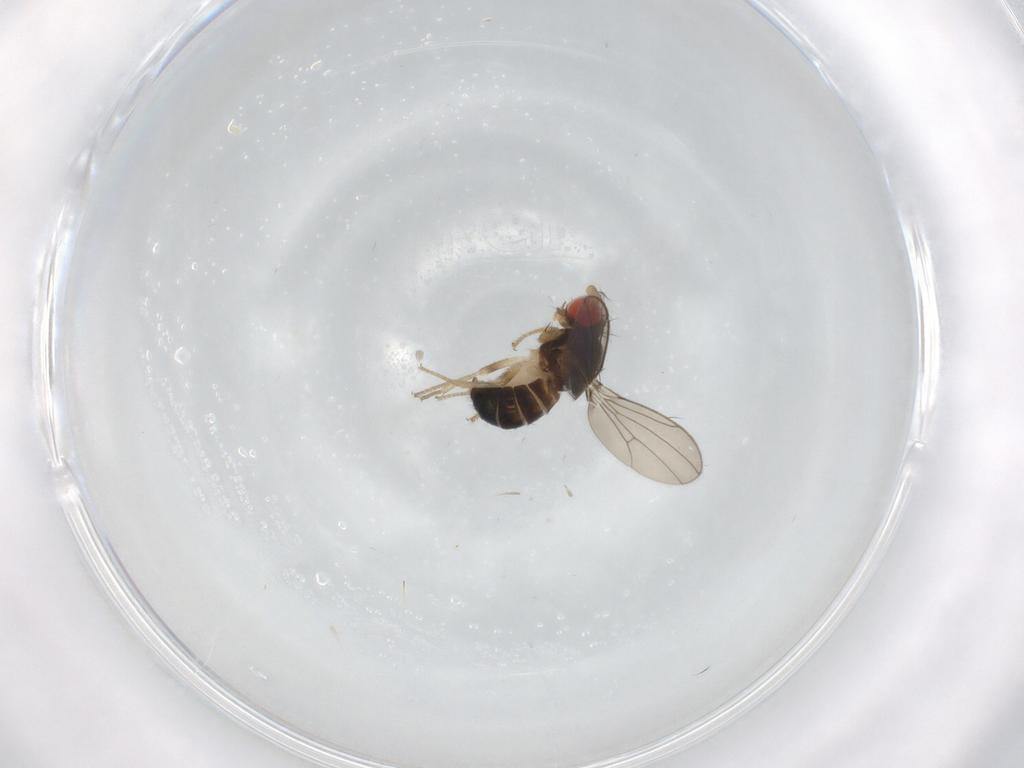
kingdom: Animalia
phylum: Arthropoda
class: Insecta
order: Diptera
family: Drosophilidae
